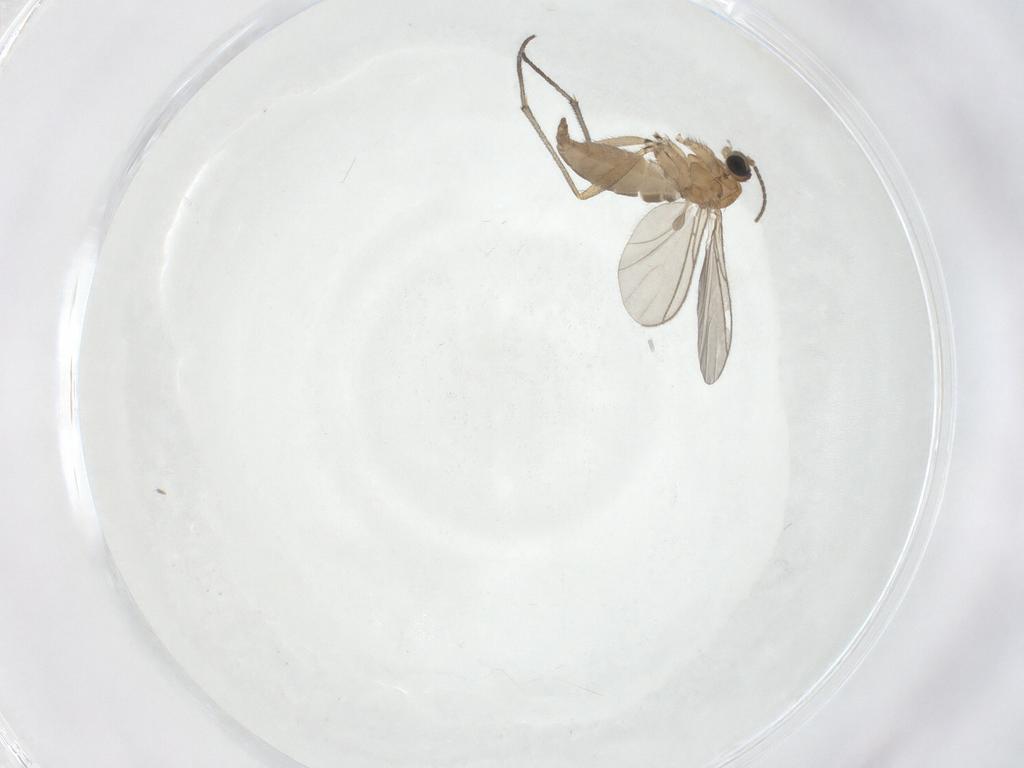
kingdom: Animalia
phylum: Arthropoda
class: Insecta
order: Diptera
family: Sciaridae
